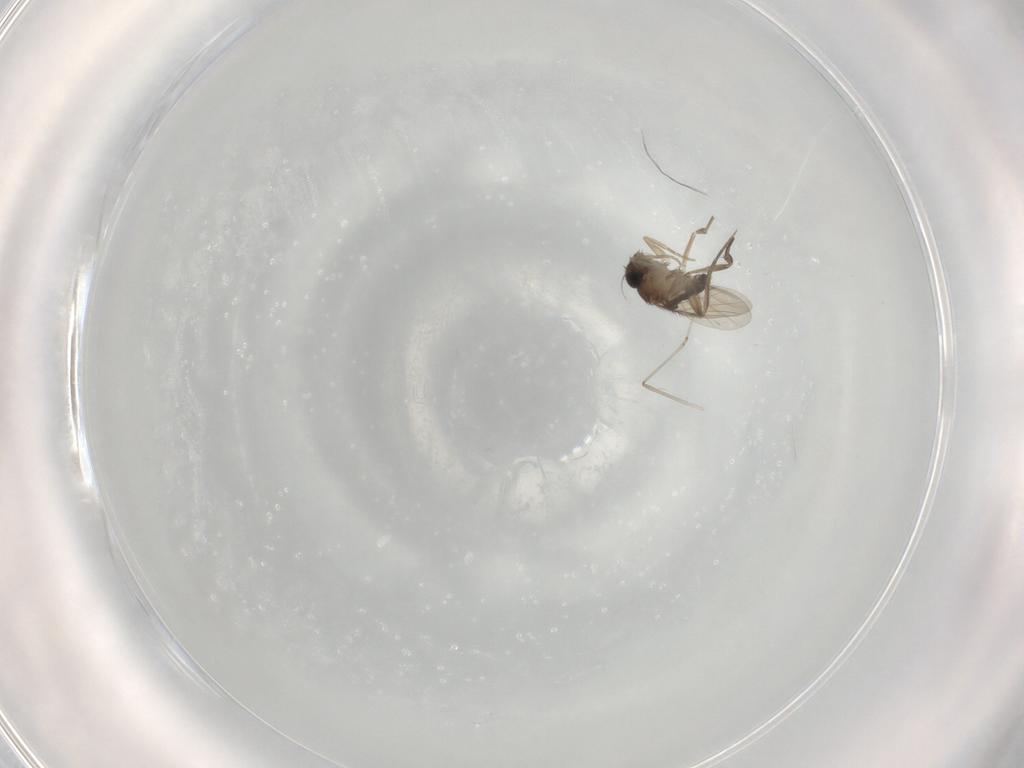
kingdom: Animalia
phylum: Arthropoda
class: Insecta
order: Diptera
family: Phoridae
